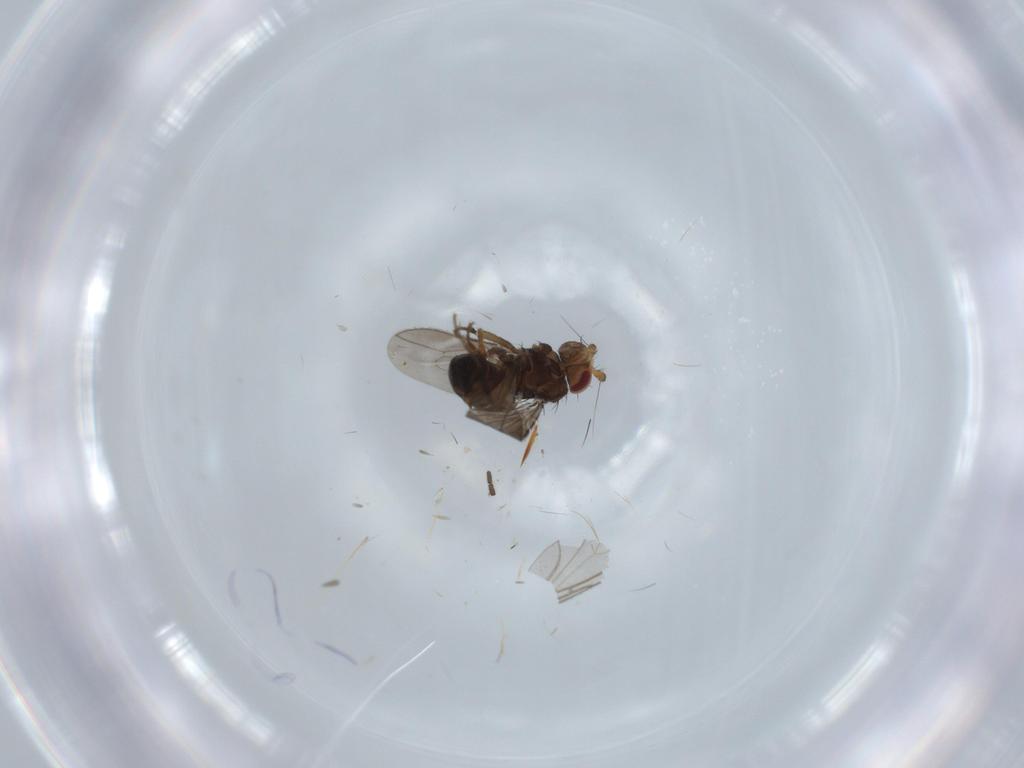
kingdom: Animalia
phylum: Arthropoda
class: Insecta
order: Diptera
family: Sphaeroceridae
